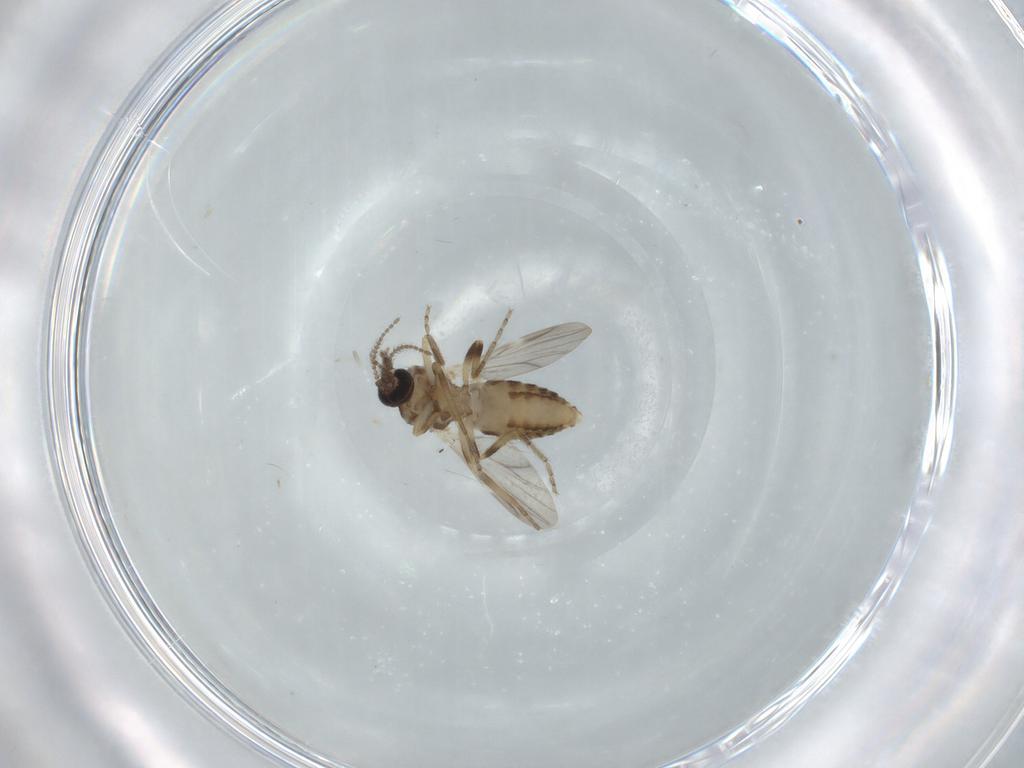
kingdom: Animalia
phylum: Arthropoda
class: Insecta
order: Diptera
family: Ceratopogonidae
